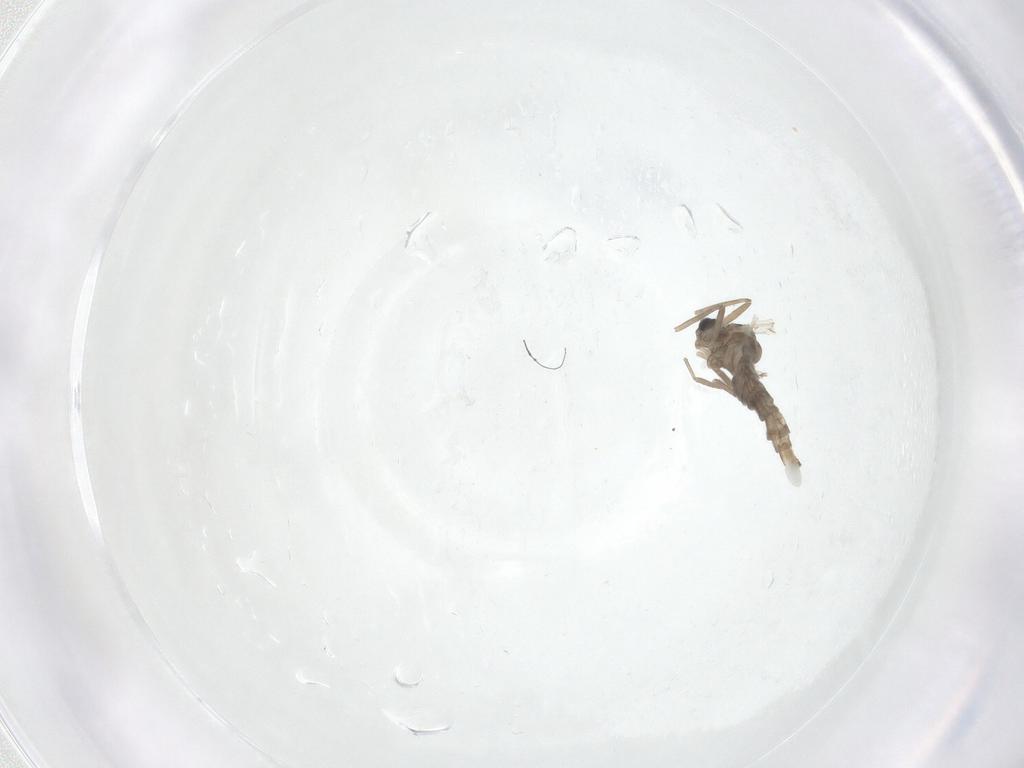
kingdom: Animalia
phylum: Arthropoda
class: Insecta
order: Diptera
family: Cecidomyiidae
